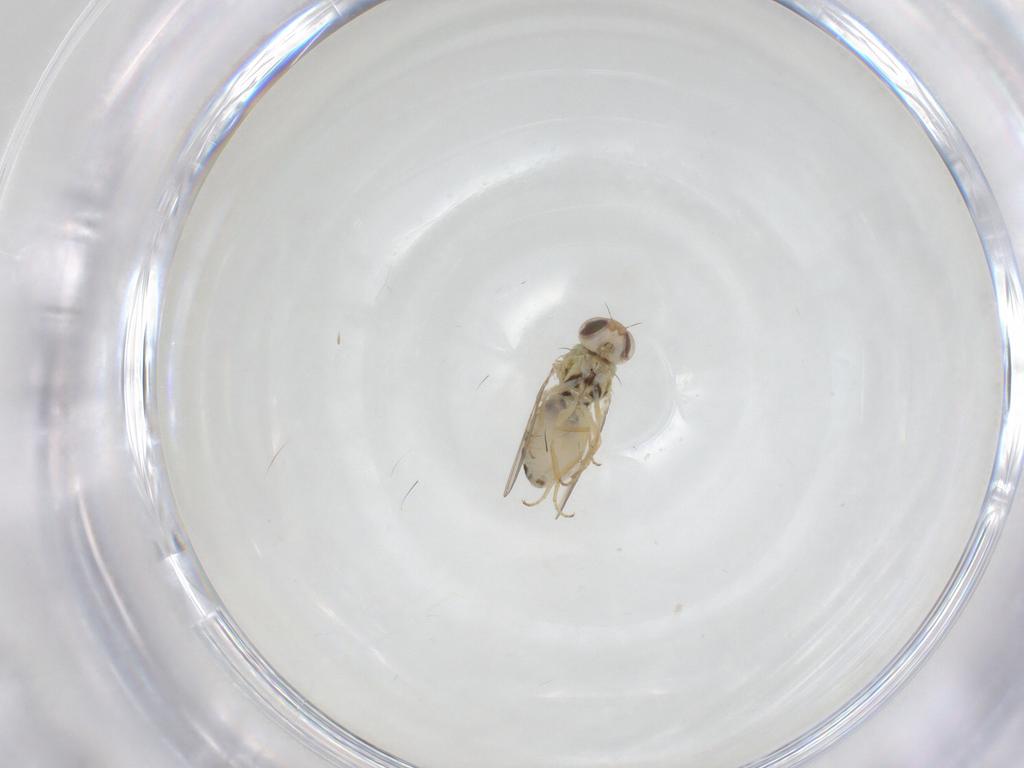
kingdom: Animalia
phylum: Arthropoda
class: Insecta
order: Diptera
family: Chyromyidae
